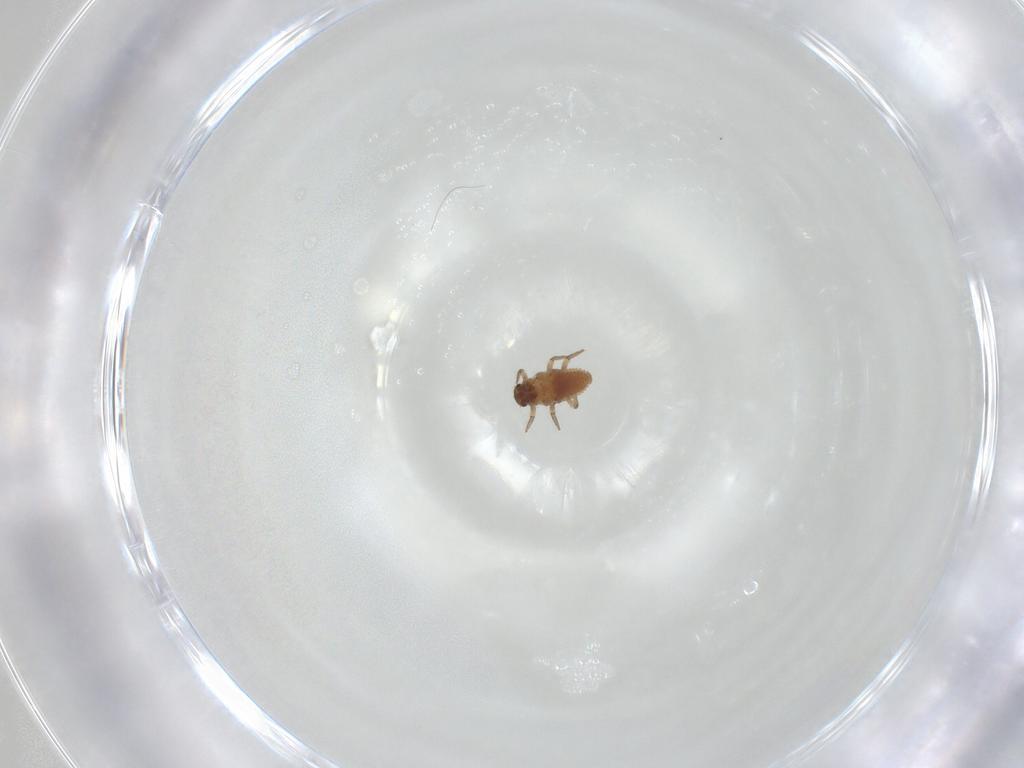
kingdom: Animalia
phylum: Arthropoda
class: Insecta
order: Coleoptera
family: Coccinellidae
